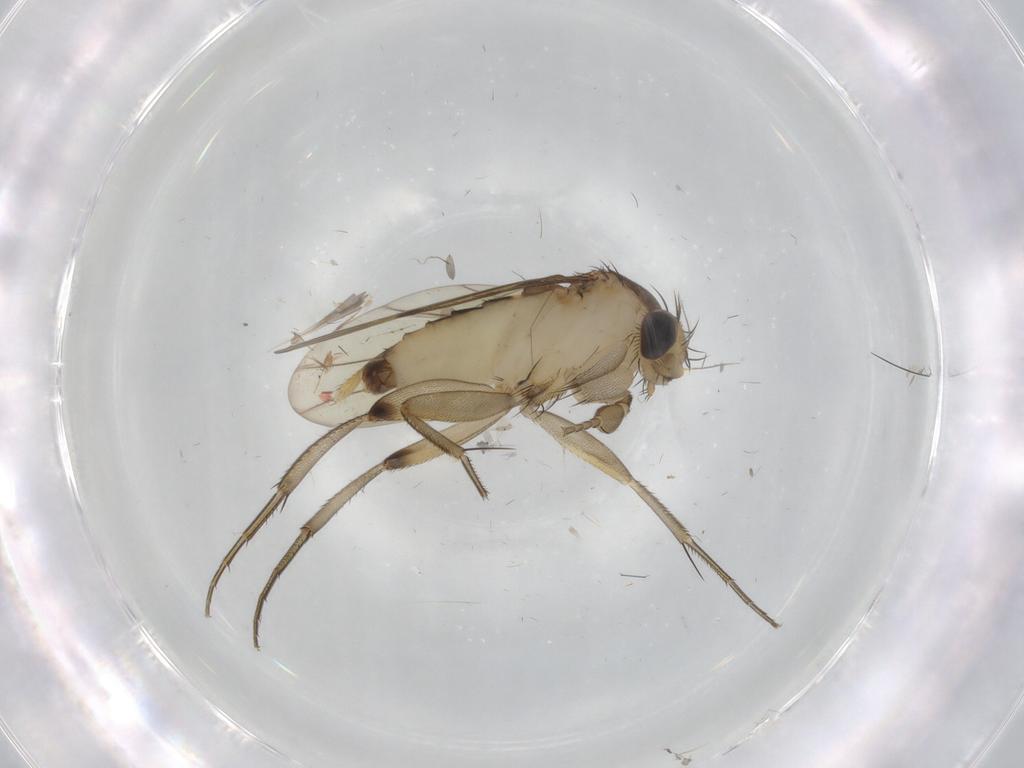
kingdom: Animalia
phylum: Arthropoda
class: Insecta
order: Diptera
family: Phoridae
